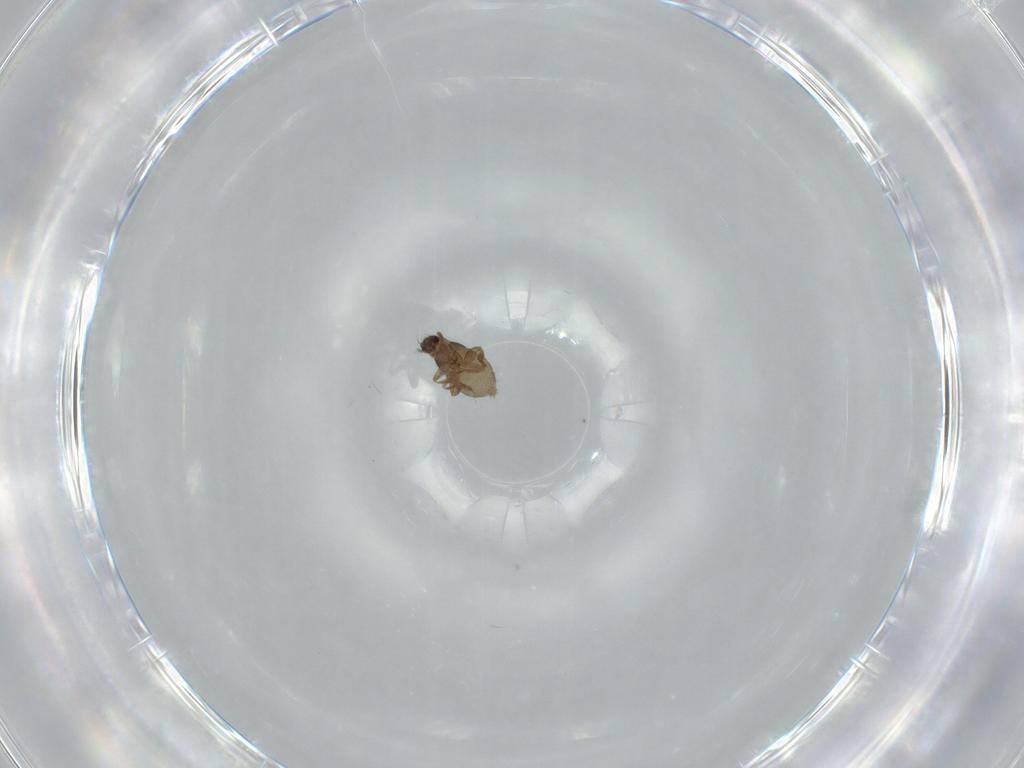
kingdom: Animalia
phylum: Arthropoda
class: Insecta
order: Diptera
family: Phoridae
